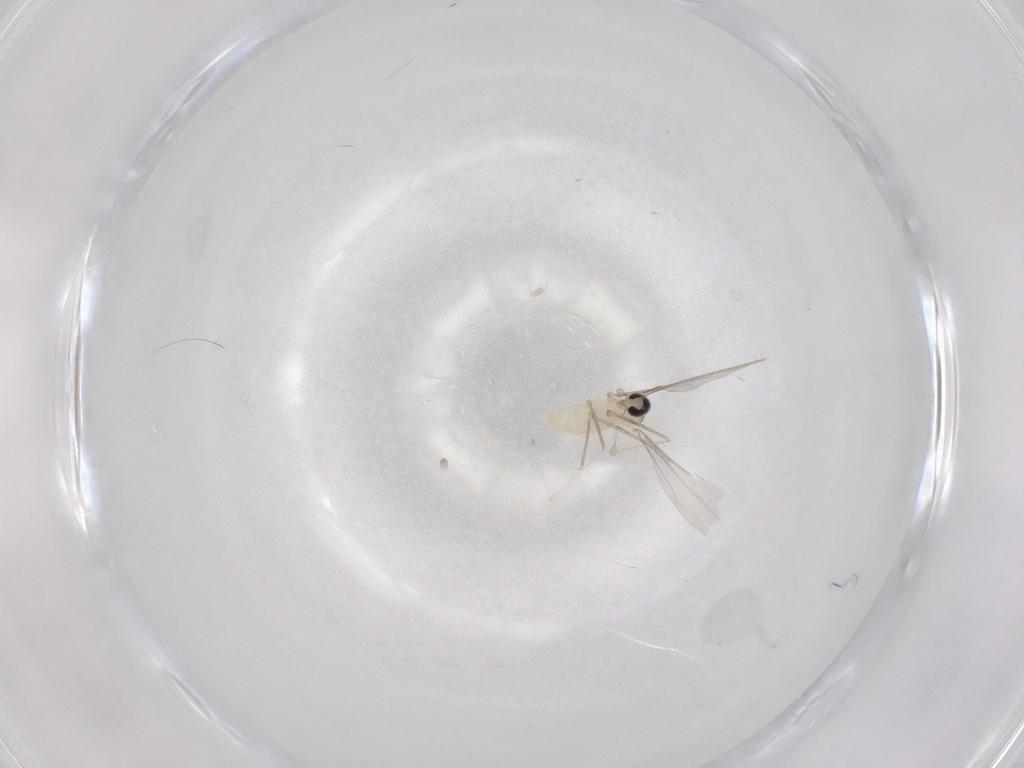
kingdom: Animalia
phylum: Arthropoda
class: Insecta
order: Diptera
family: Cecidomyiidae
